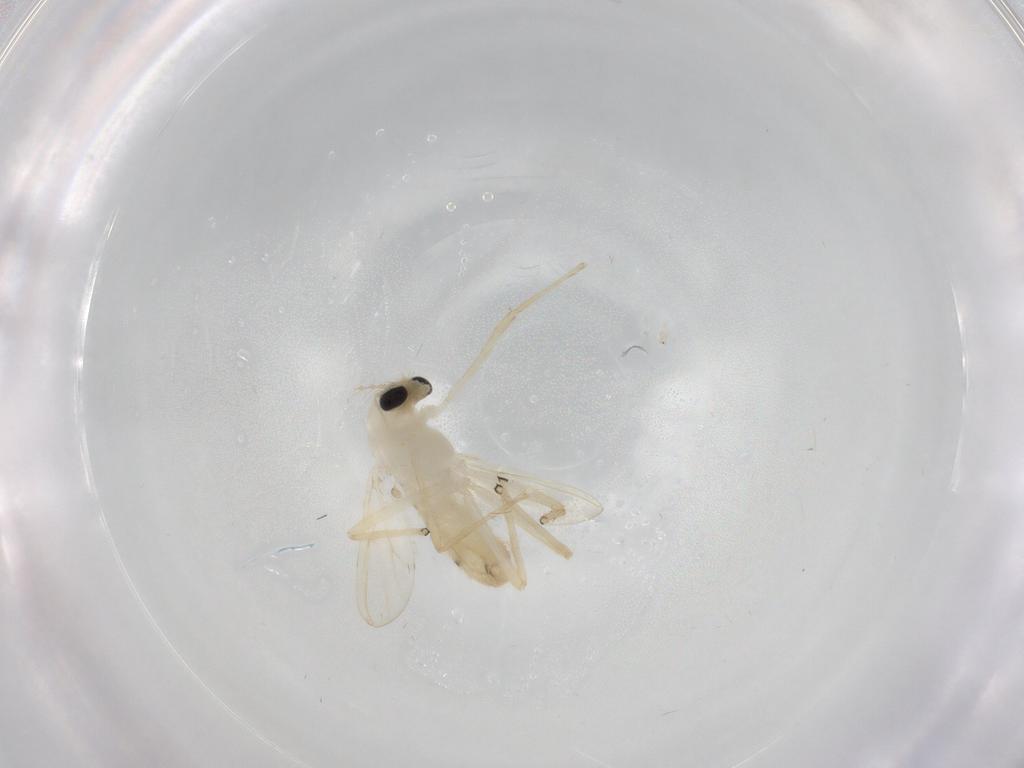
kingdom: Animalia
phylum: Arthropoda
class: Insecta
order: Diptera
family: Chironomidae
